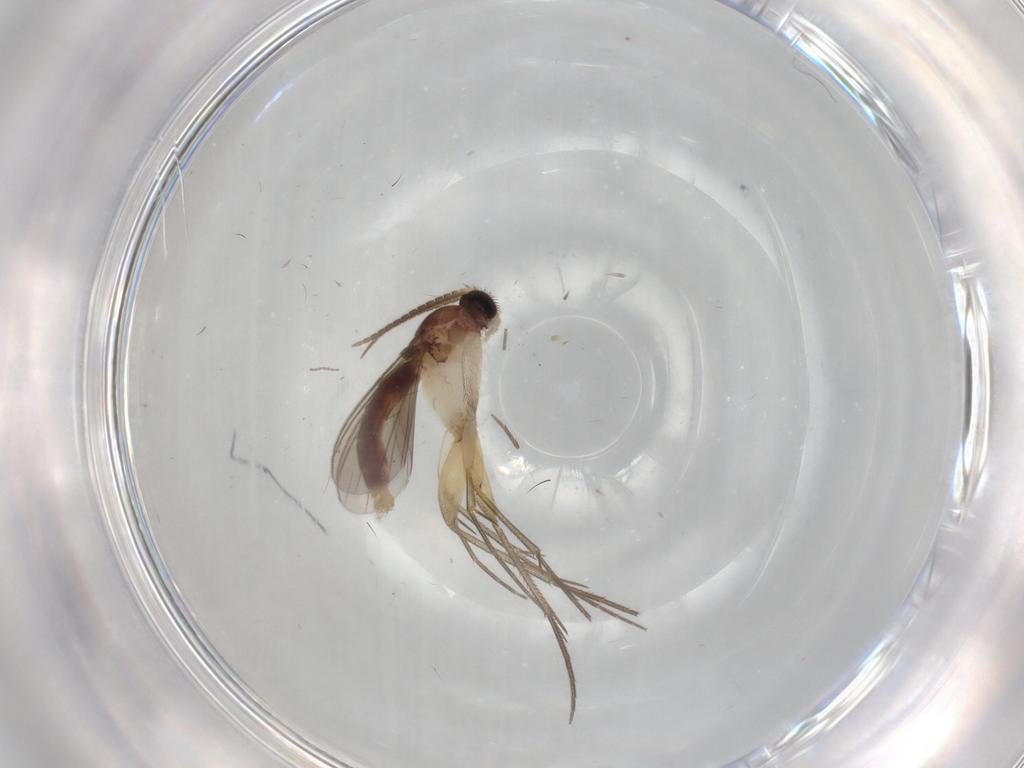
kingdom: Animalia
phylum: Arthropoda
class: Insecta
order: Diptera
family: Mycetophilidae
